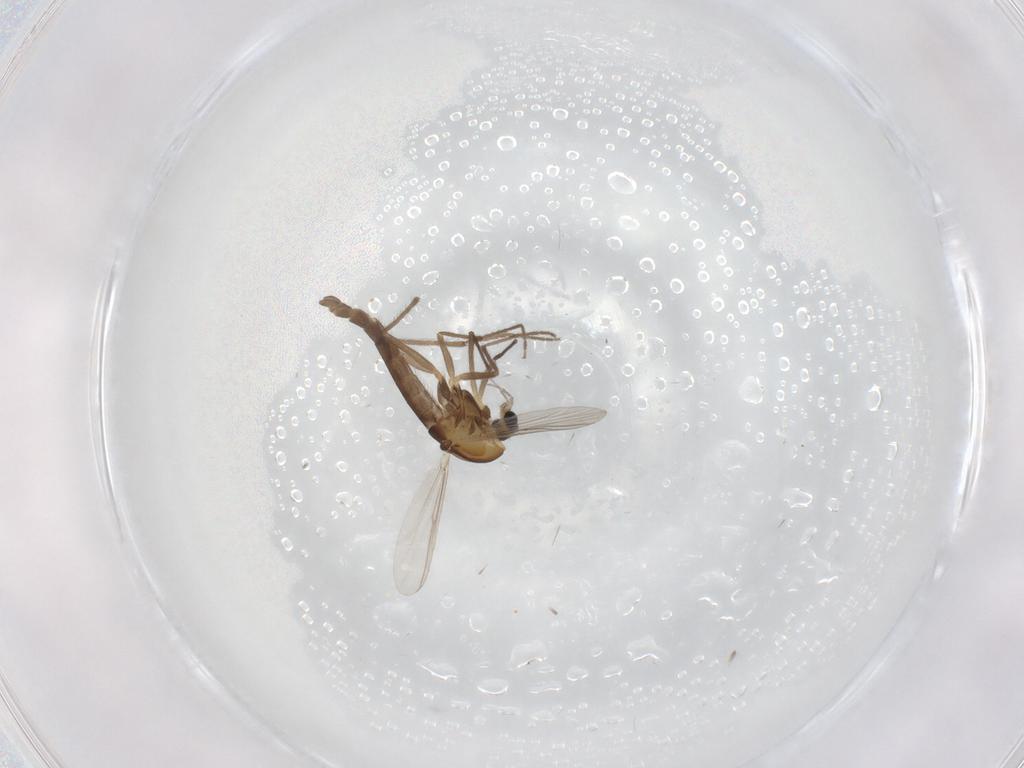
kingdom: Animalia
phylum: Arthropoda
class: Insecta
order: Diptera
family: Chironomidae
